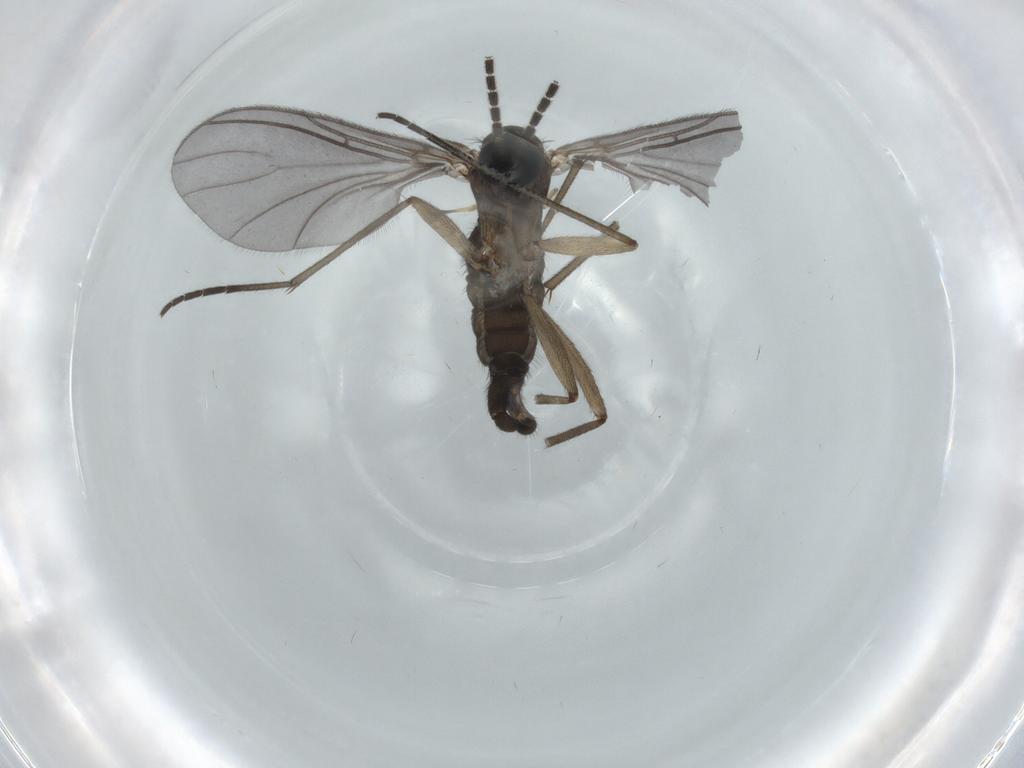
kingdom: Animalia
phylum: Arthropoda
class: Insecta
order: Diptera
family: Sciaridae
